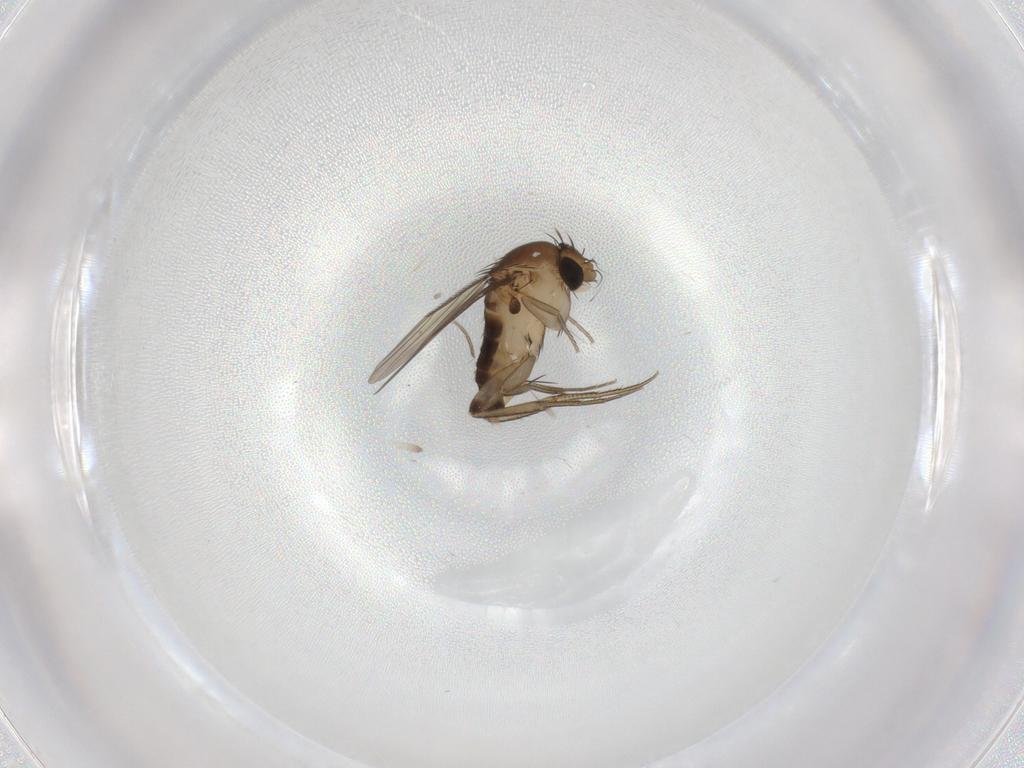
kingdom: Animalia
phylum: Arthropoda
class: Insecta
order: Diptera
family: Phoridae
